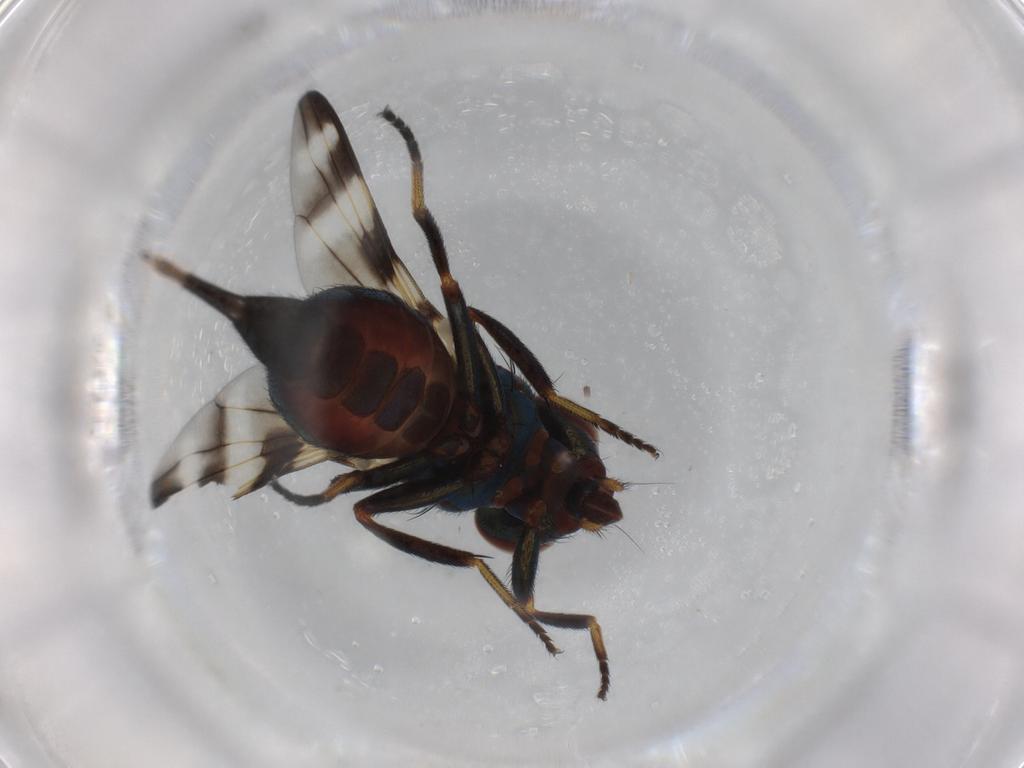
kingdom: Animalia
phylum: Arthropoda
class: Insecta
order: Diptera
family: Ulidiidae
